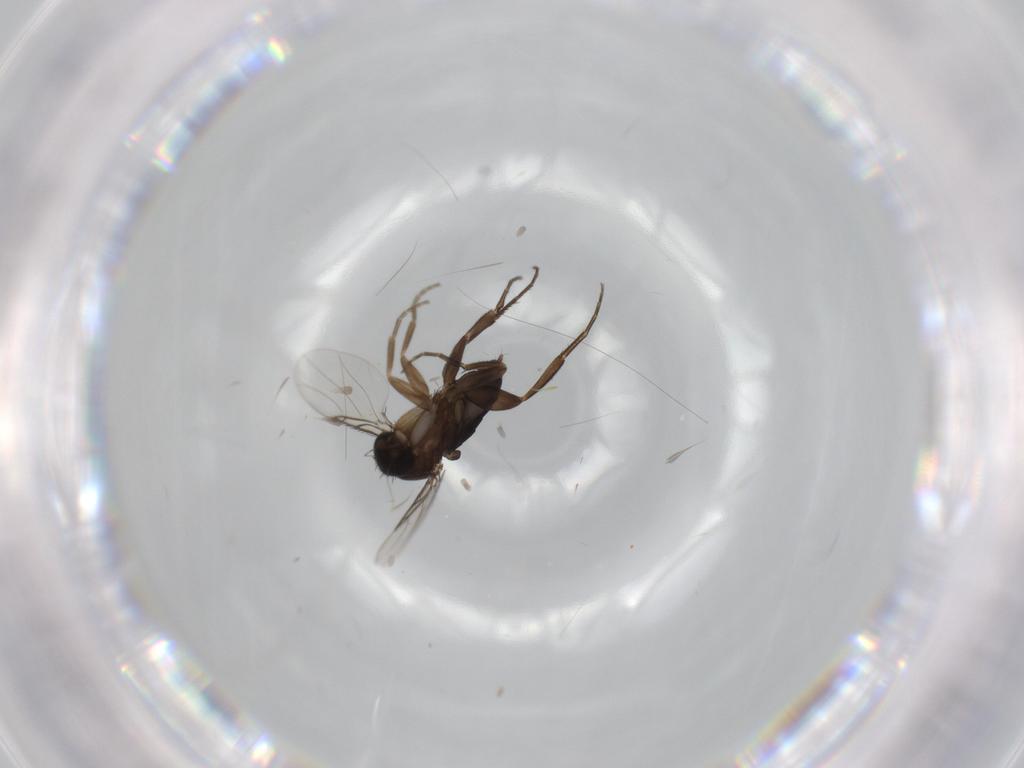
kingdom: Animalia
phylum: Arthropoda
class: Insecta
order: Diptera
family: Phoridae
